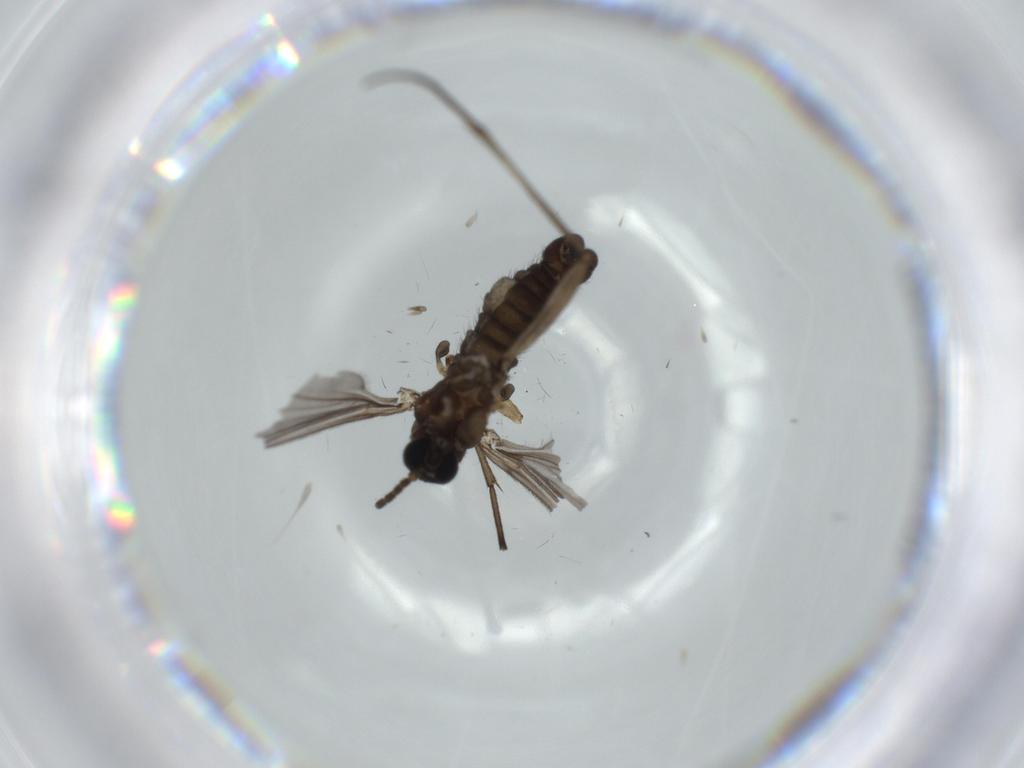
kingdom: Animalia
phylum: Arthropoda
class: Insecta
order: Diptera
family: Sciaridae
